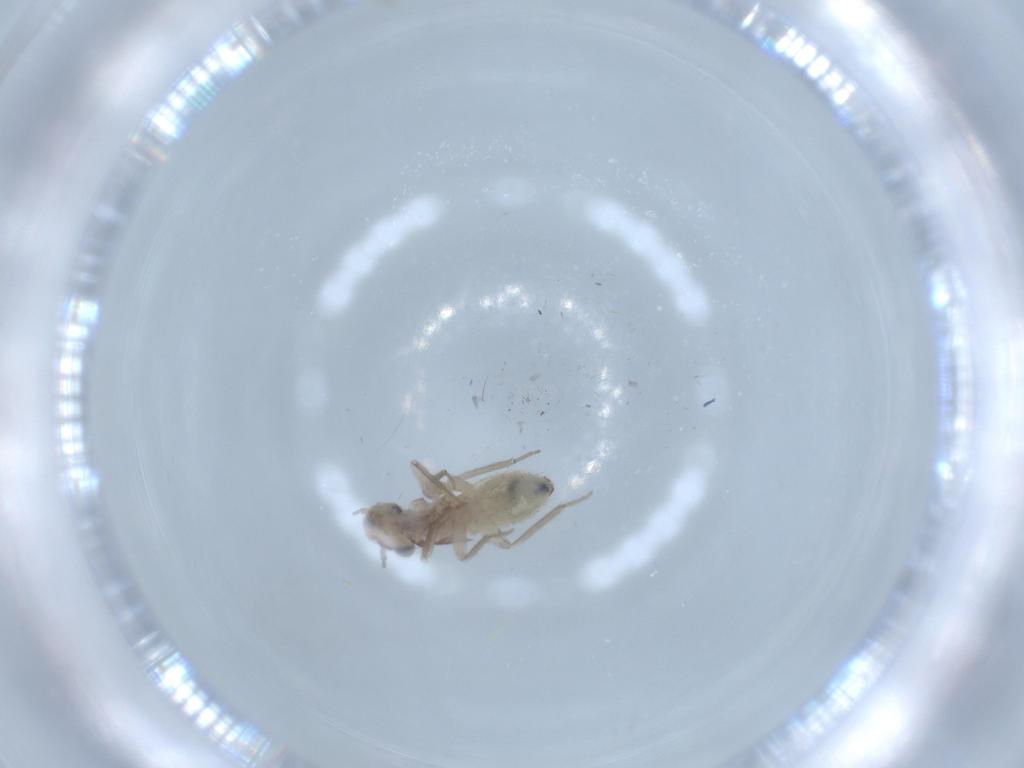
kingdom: Animalia
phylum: Arthropoda
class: Insecta
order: Psocodea
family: Lepidopsocidae
